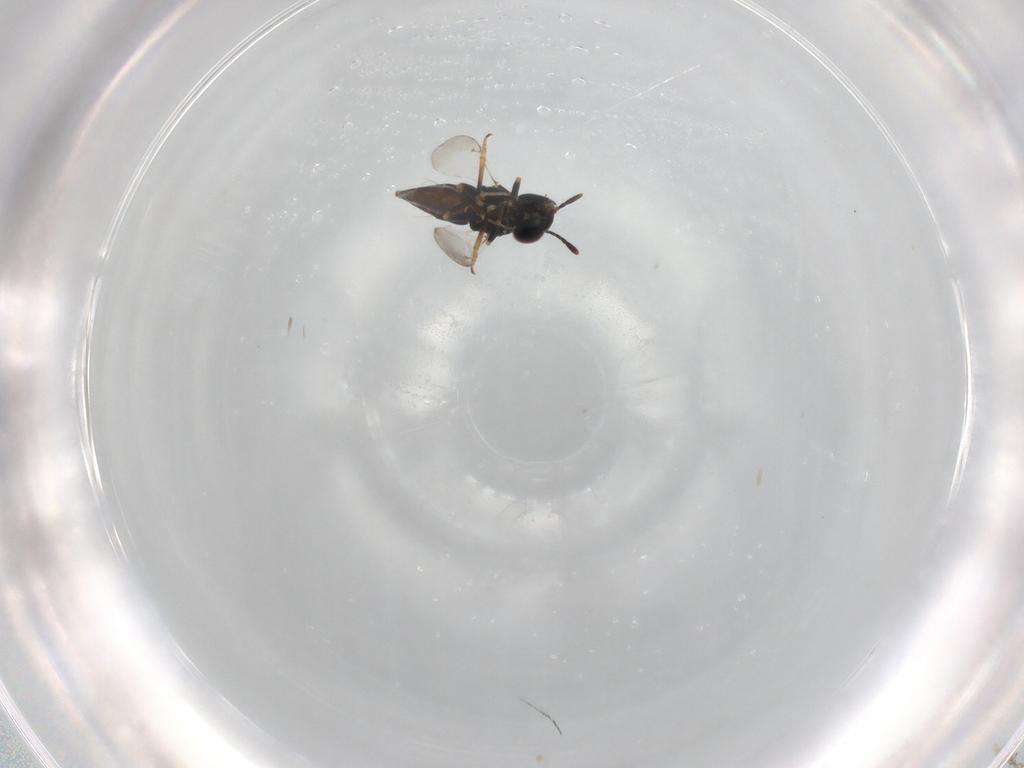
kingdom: Animalia
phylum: Arthropoda
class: Insecta
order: Hymenoptera
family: Encyrtidae
